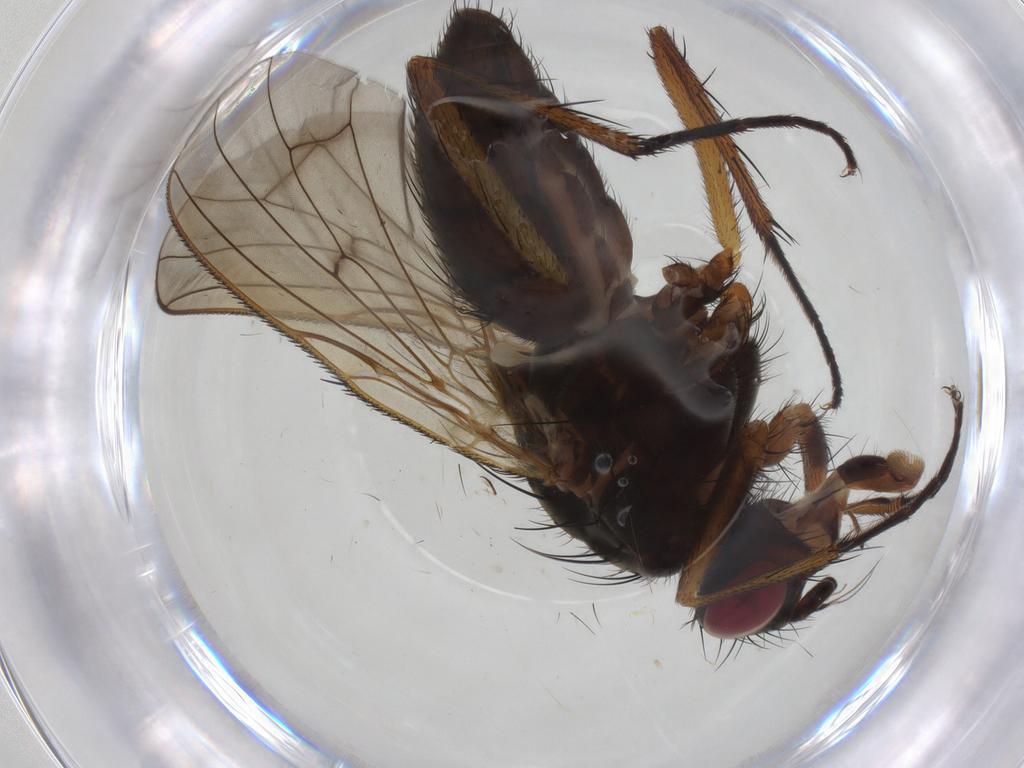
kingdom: Animalia
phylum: Arthropoda
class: Insecta
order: Diptera
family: Anthomyiidae
